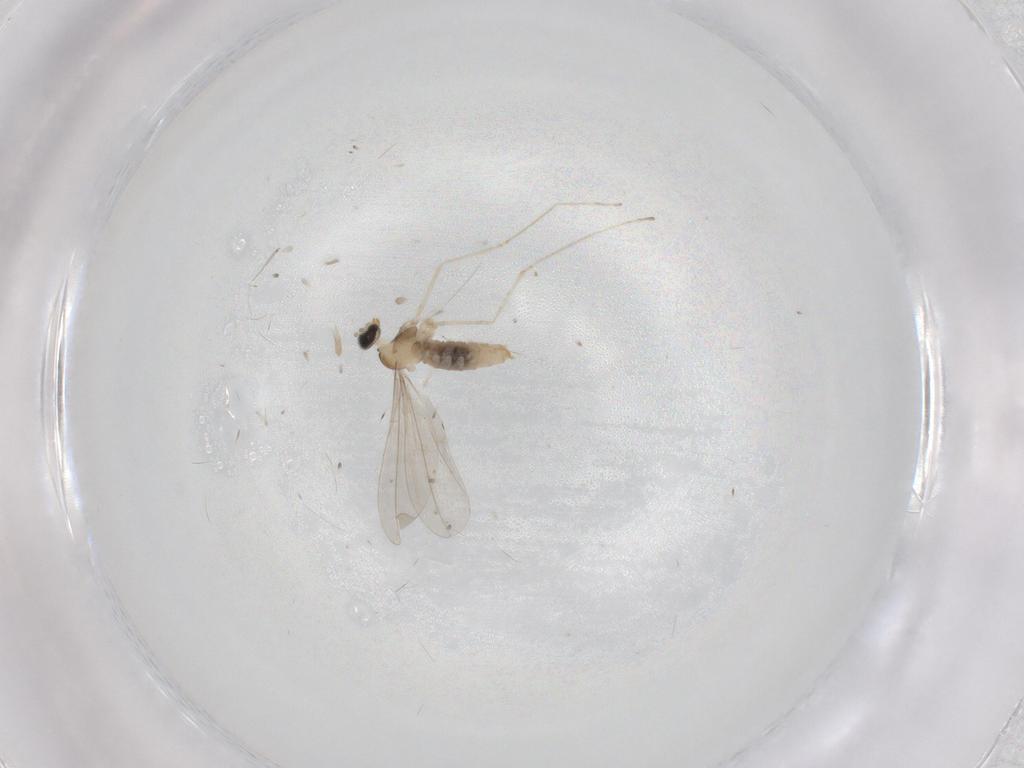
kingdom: Animalia
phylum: Arthropoda
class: Insecta
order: Diptera
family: Cecidomyiidae
